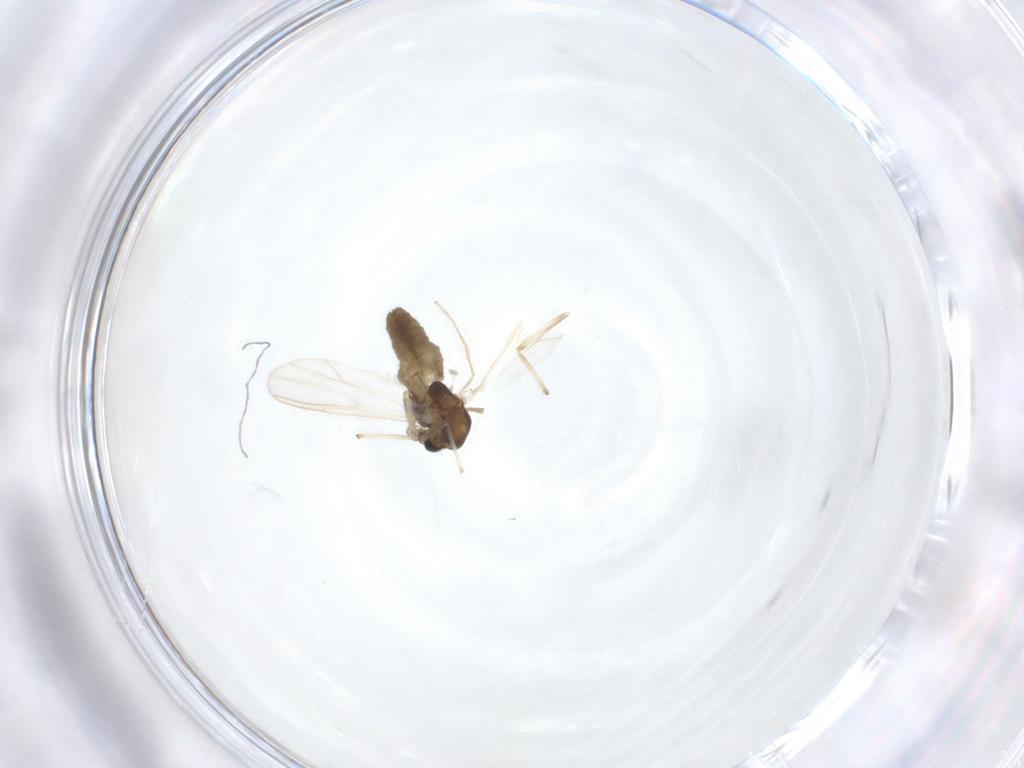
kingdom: Animalia
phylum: Arthropoda
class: Insecta
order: Diptera
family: Chironomidae
